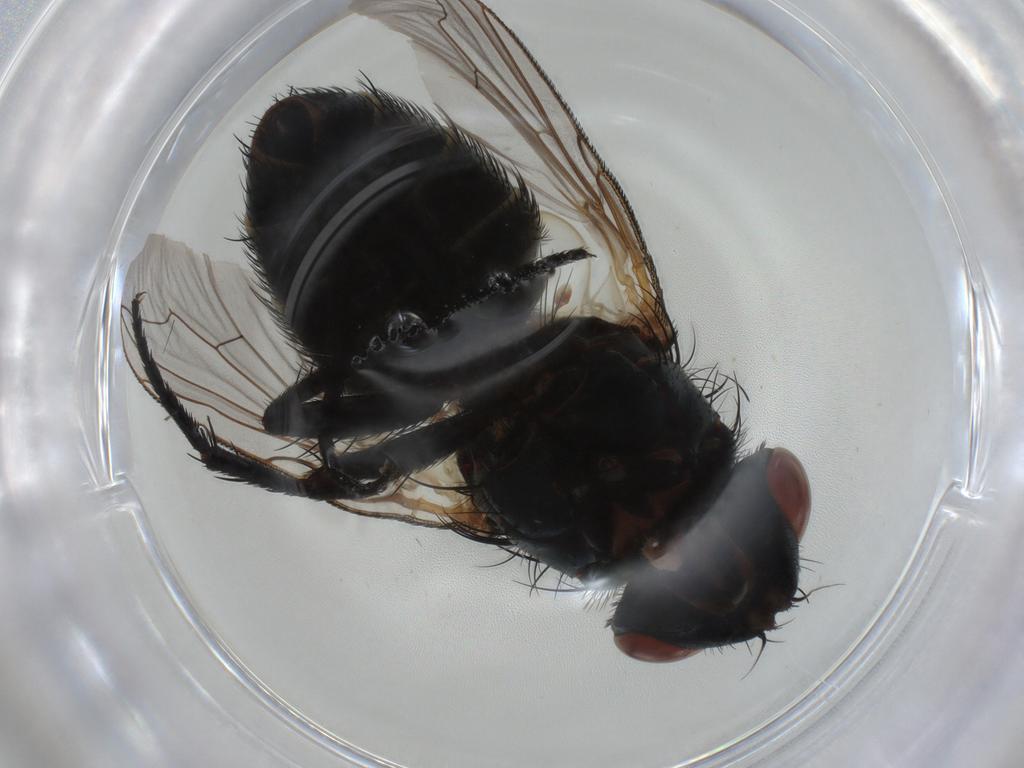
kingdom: Animalia
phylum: Arthropoda
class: Insecta
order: Diptera
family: Sarcophagidae
